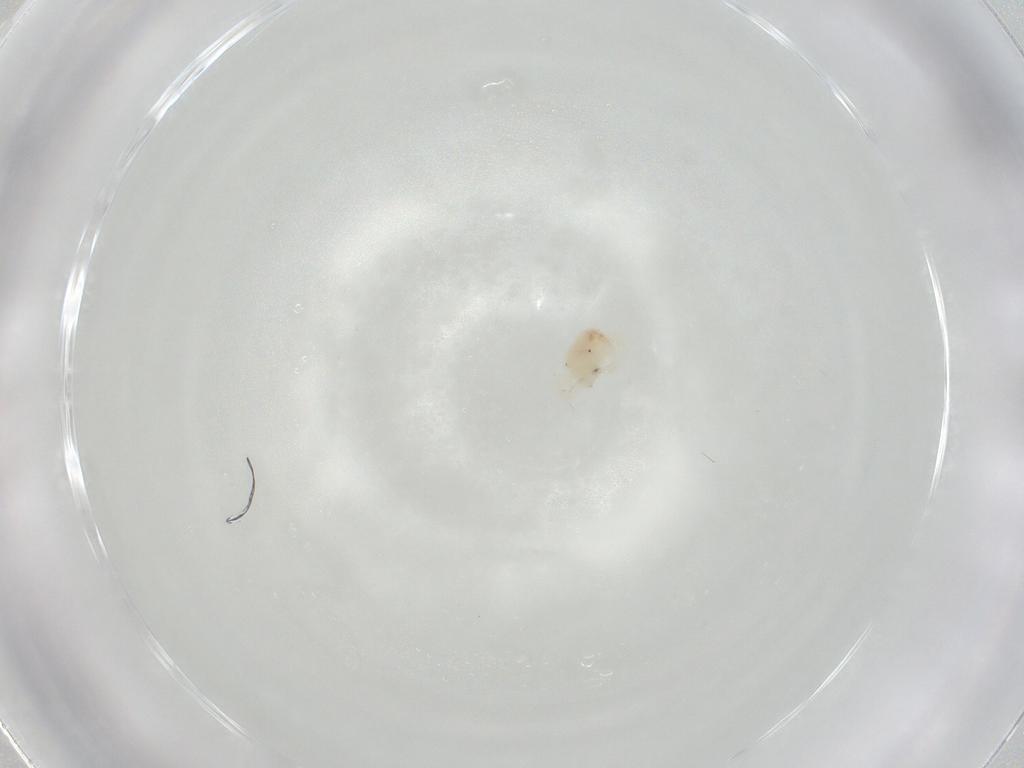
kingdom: Animalia
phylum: Arthropoda
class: Arachnida
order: Trombidiformes
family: Anystidae
